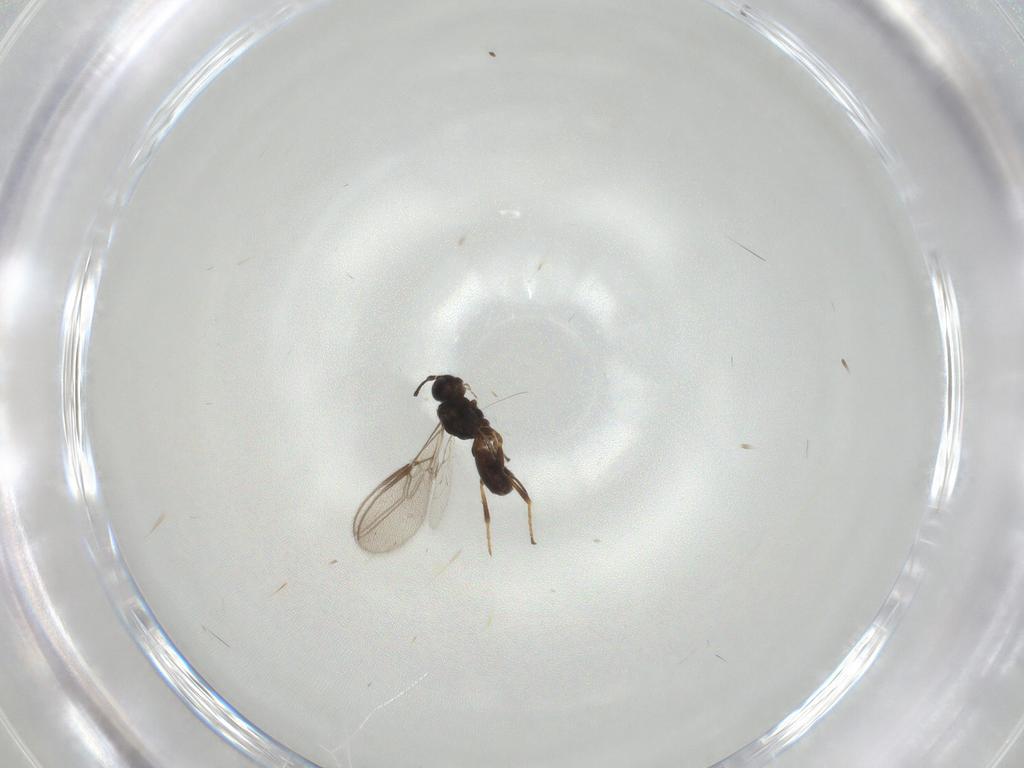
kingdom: Animalia
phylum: Arthropoda
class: Insecta
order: Hymenoptera
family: Braconidae
